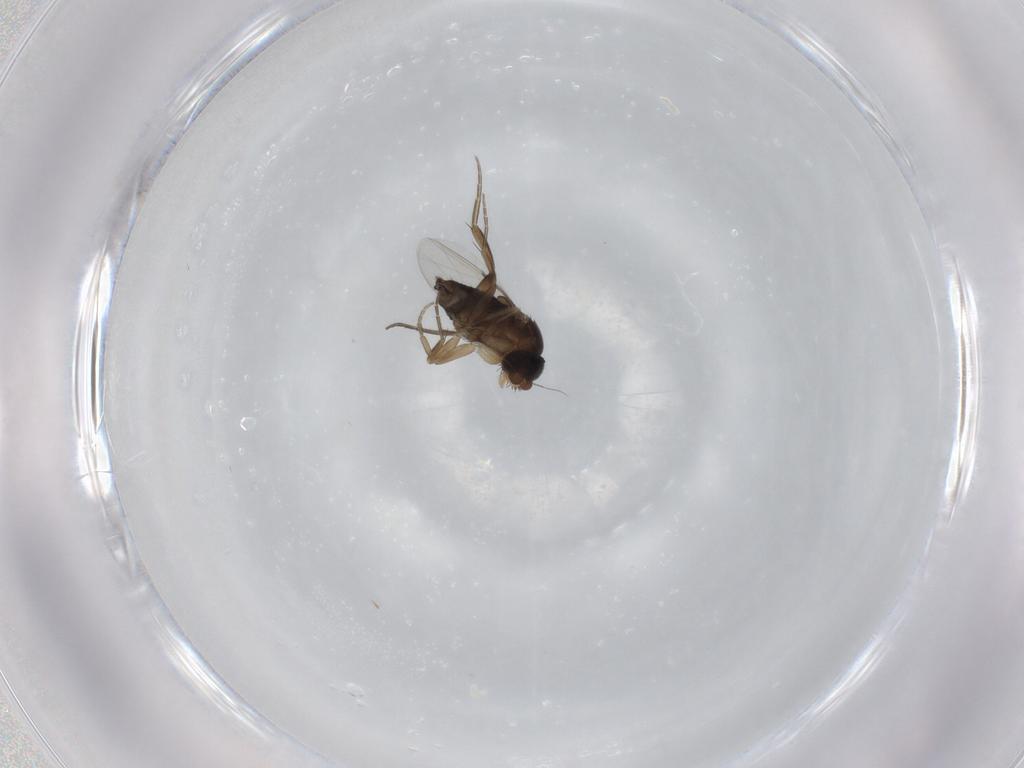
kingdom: Animalia
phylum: Arthropoda
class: Insecta
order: Diptera
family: Phoridae
